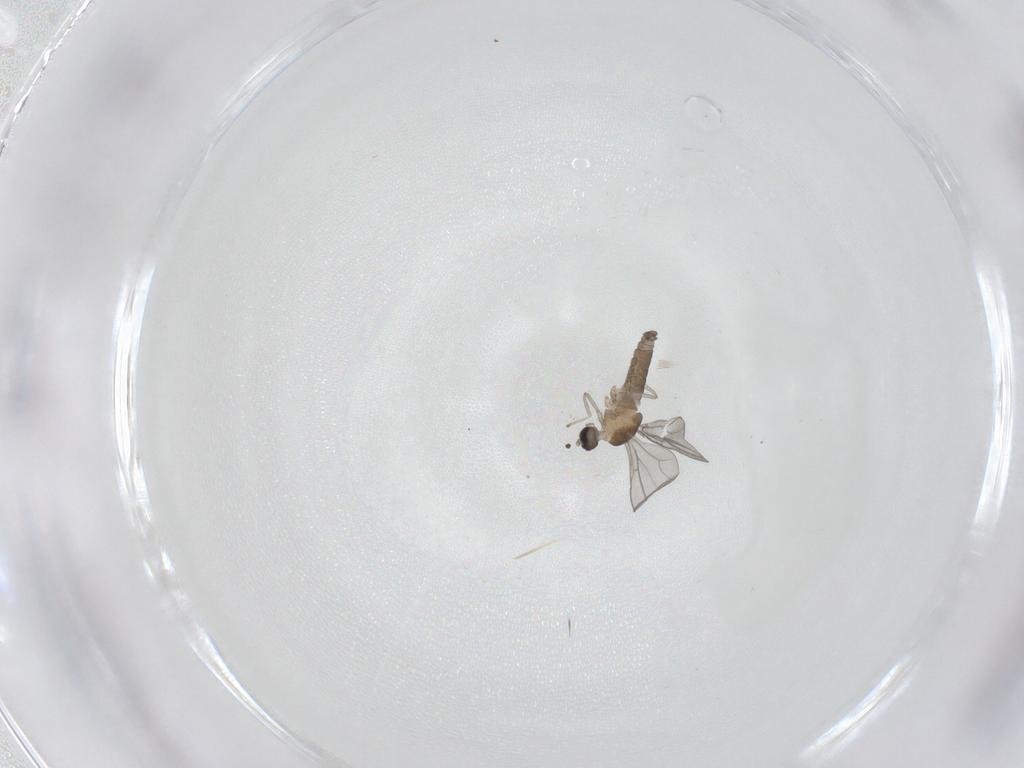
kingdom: Animalia
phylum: Arthropoda
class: Insecta
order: Diptera
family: Cecidomyiidae
